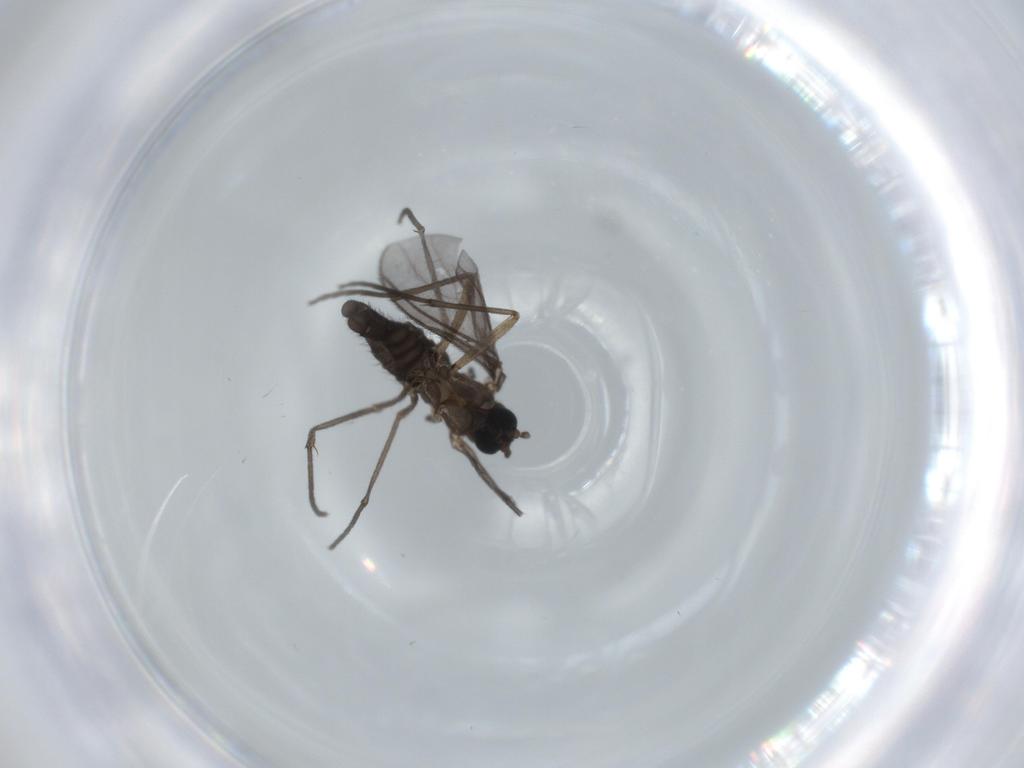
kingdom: Animalia
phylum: Arthropoda
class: Insecta
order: Diptera
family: Sciaridae
